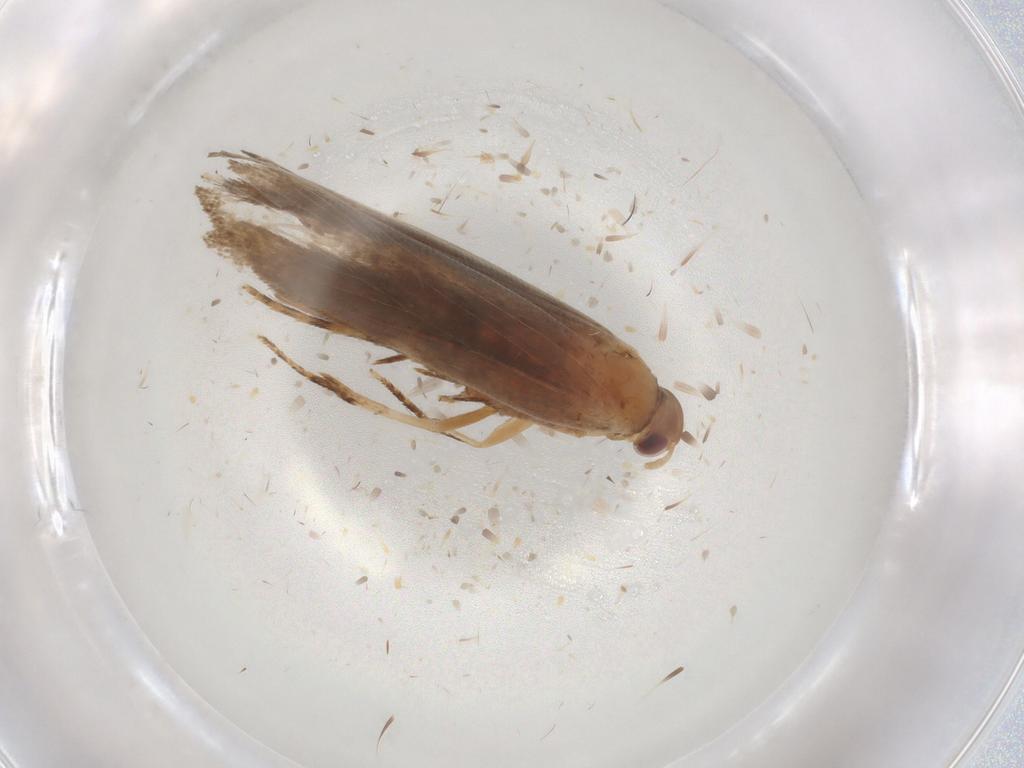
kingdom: Animalia
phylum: Arthropoda
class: Insecta
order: Lepidoptera
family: Gelechiidae
